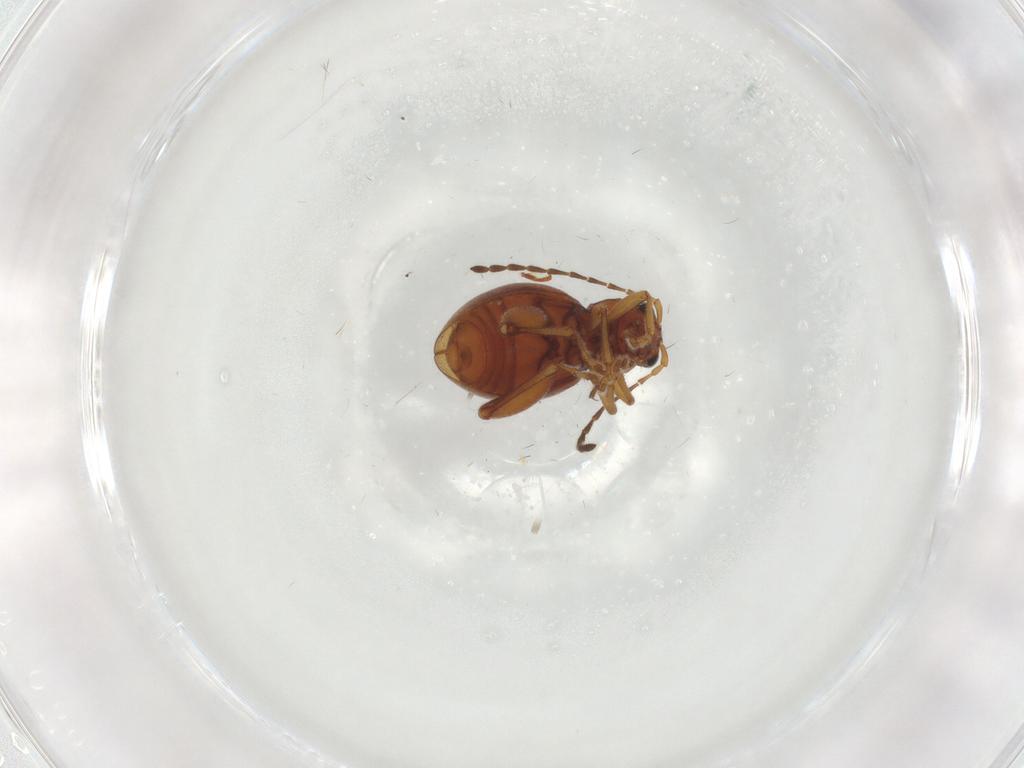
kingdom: Animalia
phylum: Arthropoda
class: Insecta
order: Coleoptera
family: Chrysomelidae
